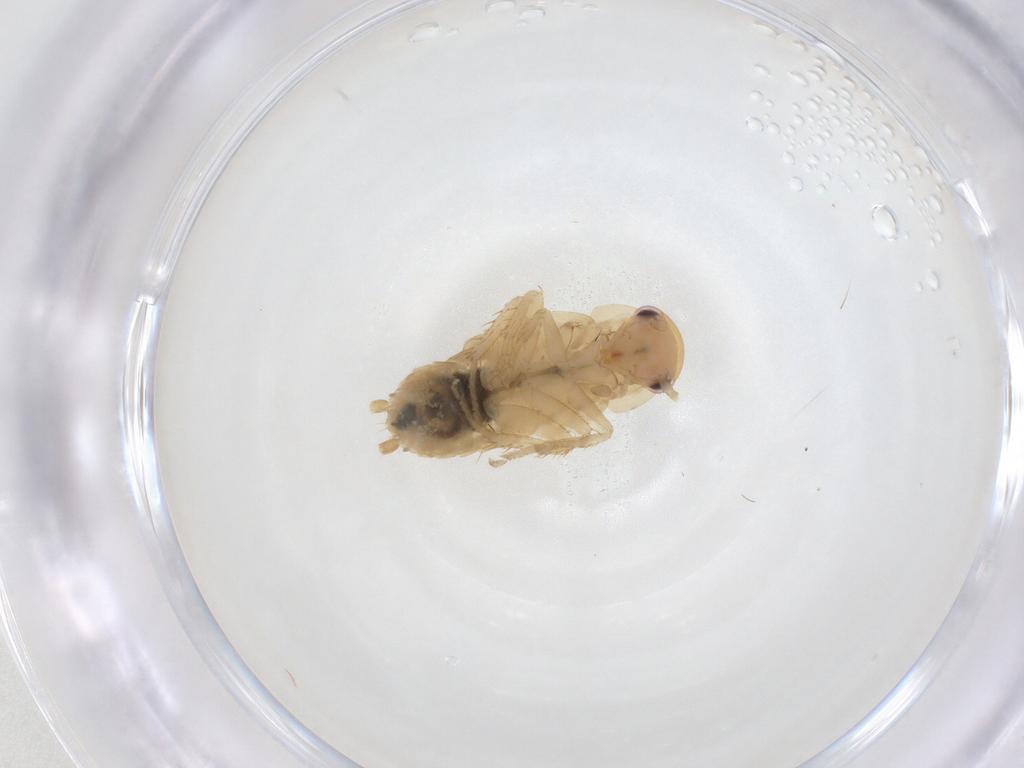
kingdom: Animalia
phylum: Arthropoda
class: Insecta
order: Blattodea
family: Ectobiidae
